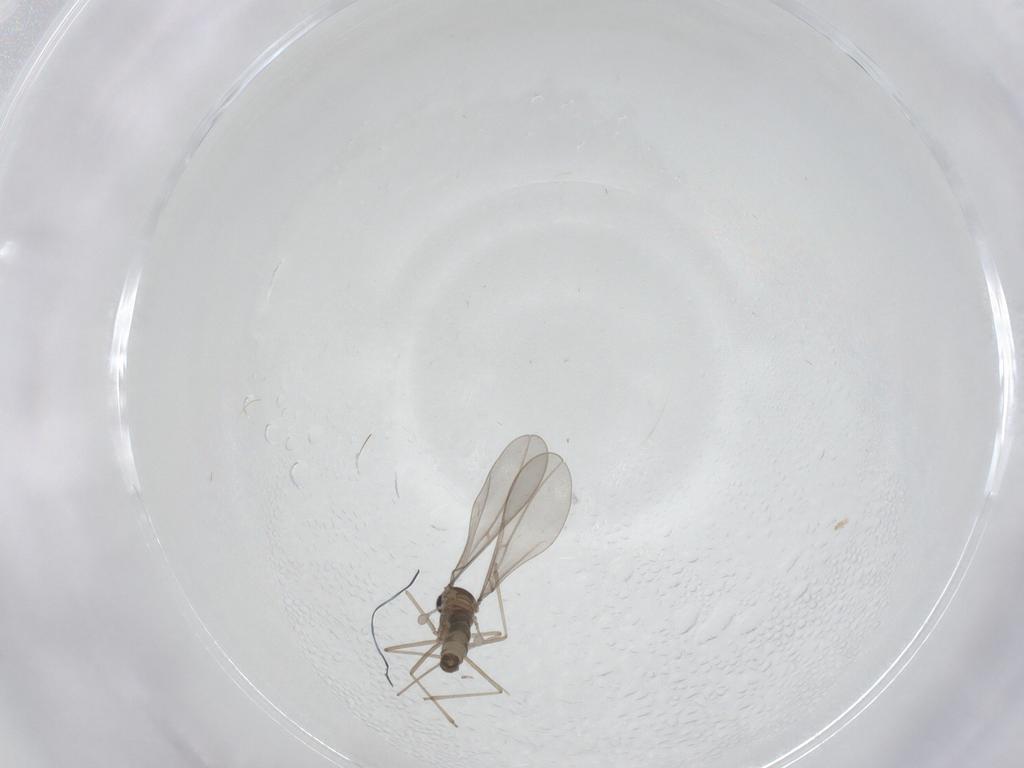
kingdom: Animalia
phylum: Arthropoda
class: Insecta
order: Diptera
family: Cecidomyiidae
